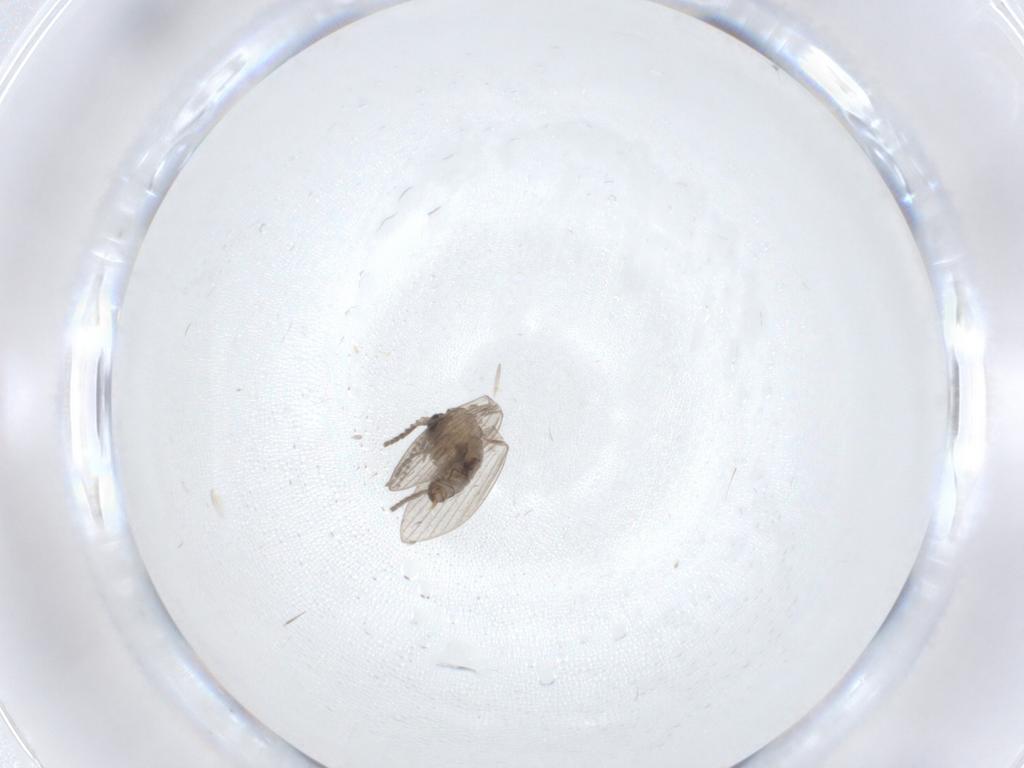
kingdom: Animalia
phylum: Arthropoda
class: Insecta
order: Diptera
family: Psychodidae
